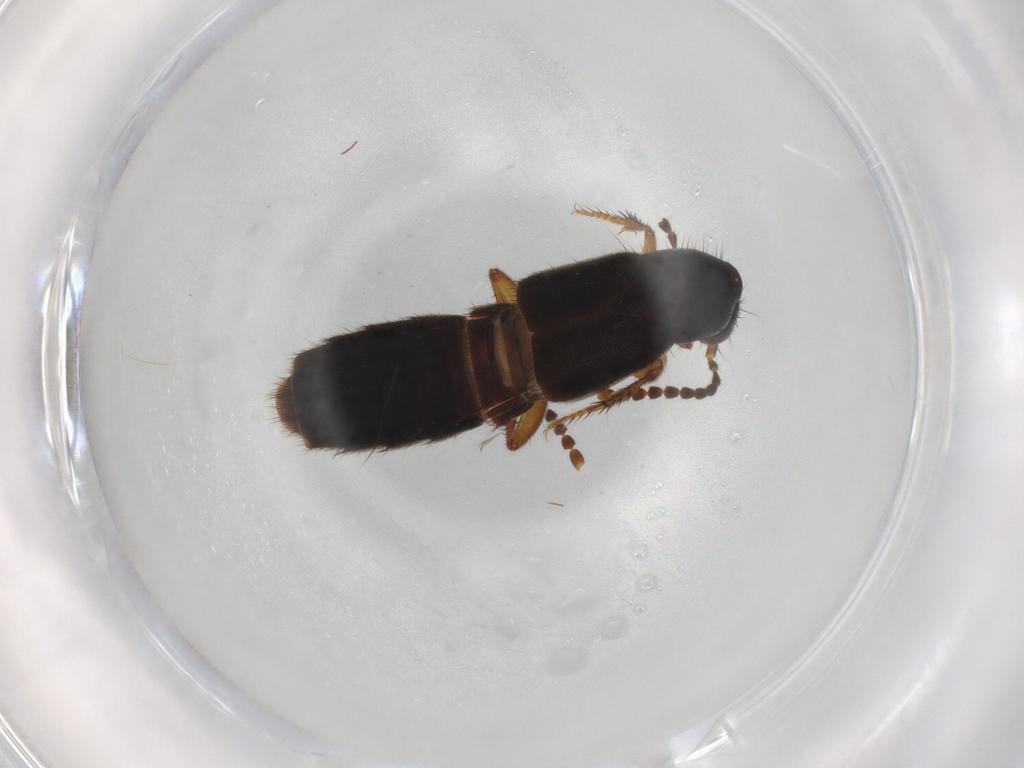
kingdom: Animalia
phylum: Arthropoda
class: Insecta
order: Coleoptera
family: Staphylinidae
